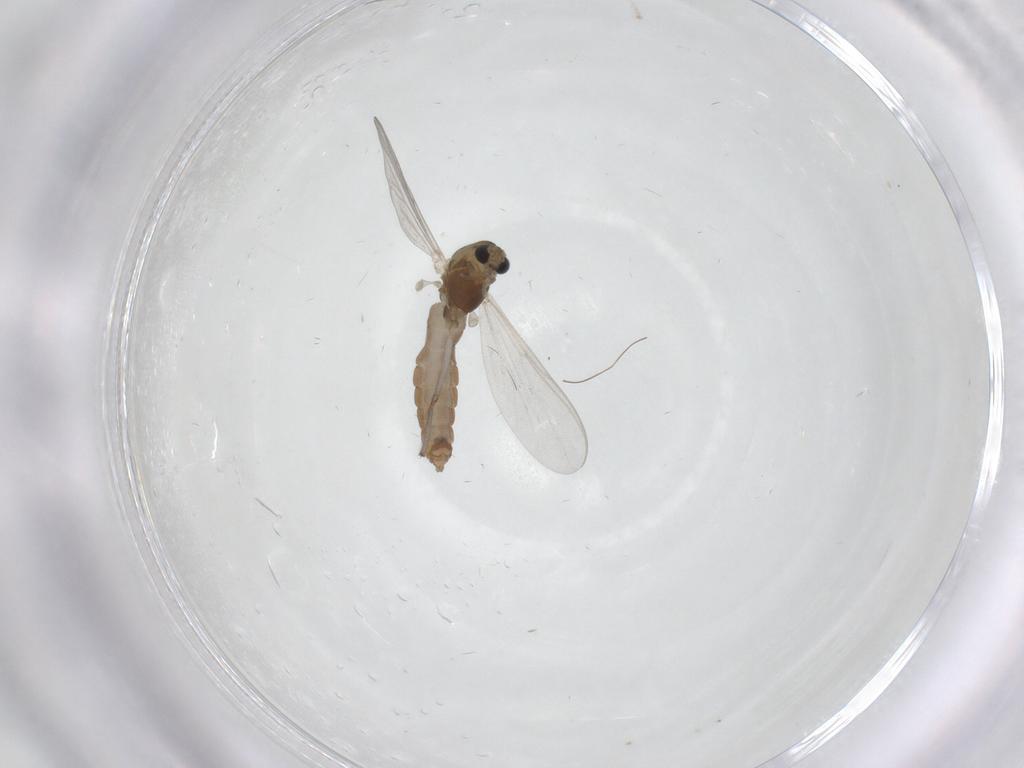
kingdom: Animalia
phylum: Arthropoda
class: Insecta
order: Diptera
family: Chironomidae
